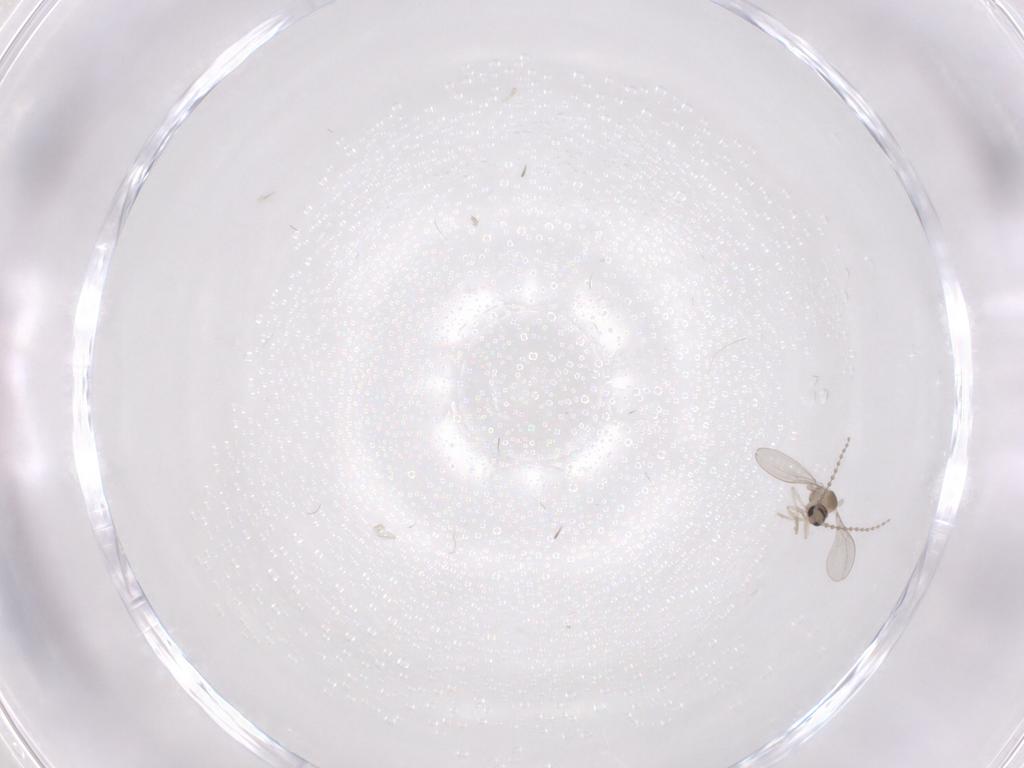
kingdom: Animalia
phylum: Arthropoda
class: Insecta
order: Diptera
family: Cecidomyiidae
